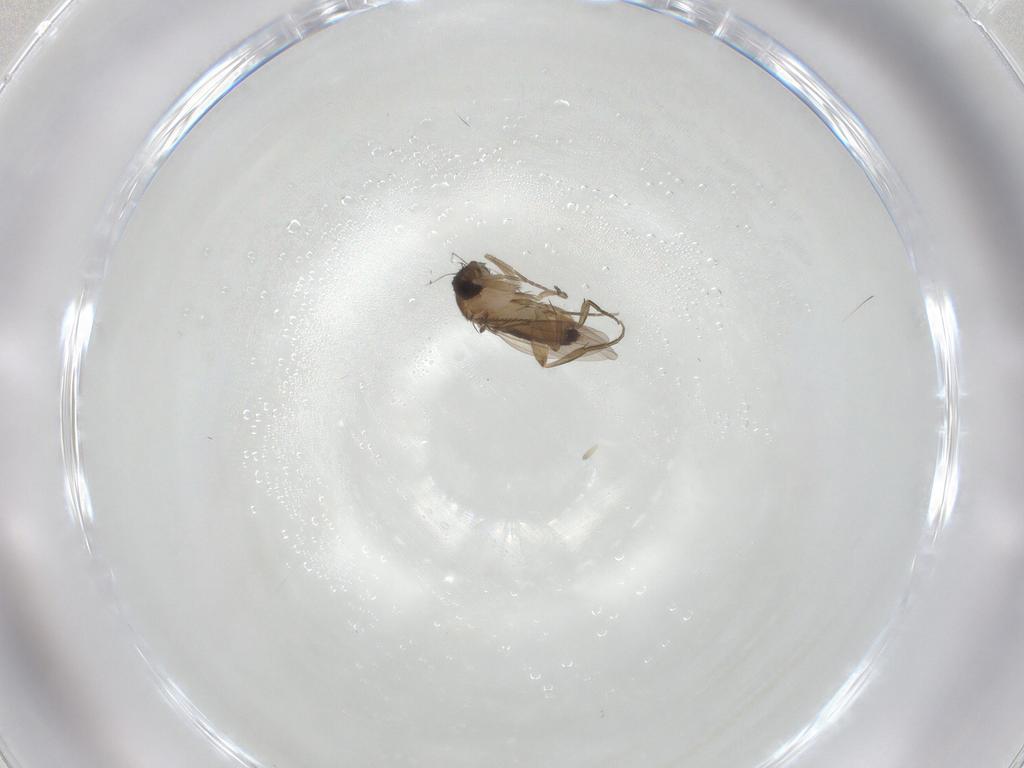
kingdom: Animalia
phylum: Arthropoda
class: Insecta
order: Diptera
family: Phoridae
